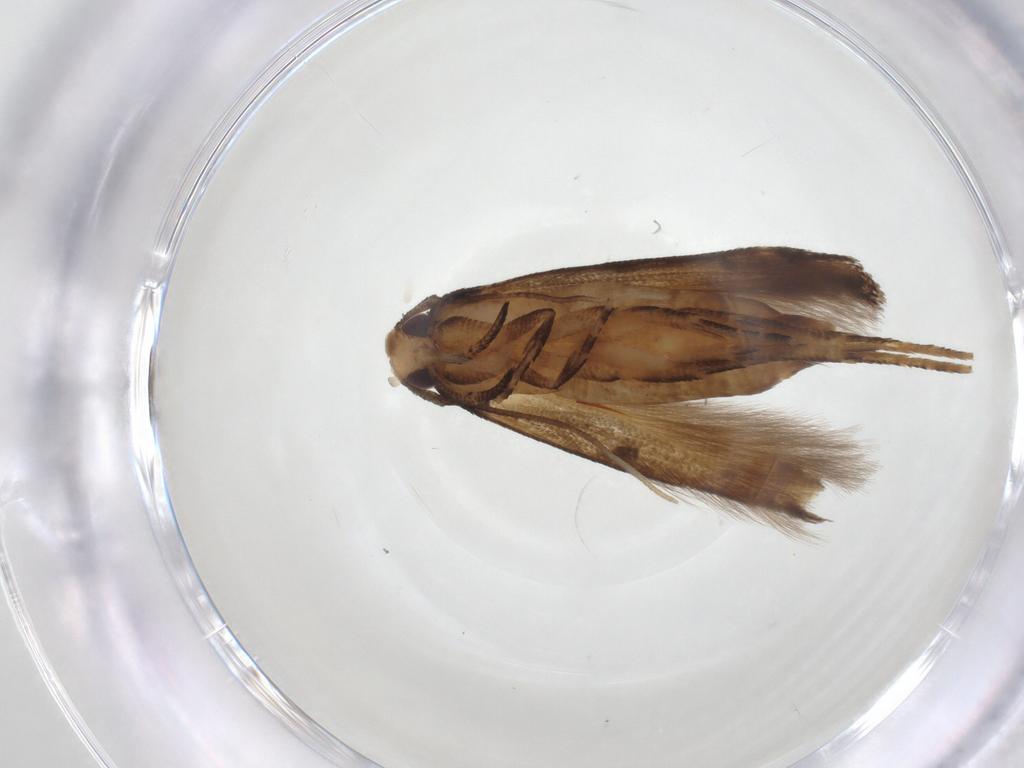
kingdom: Animalia
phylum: Arthropoda
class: Insecta
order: Lepidoptera
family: Cosmopterigidae
